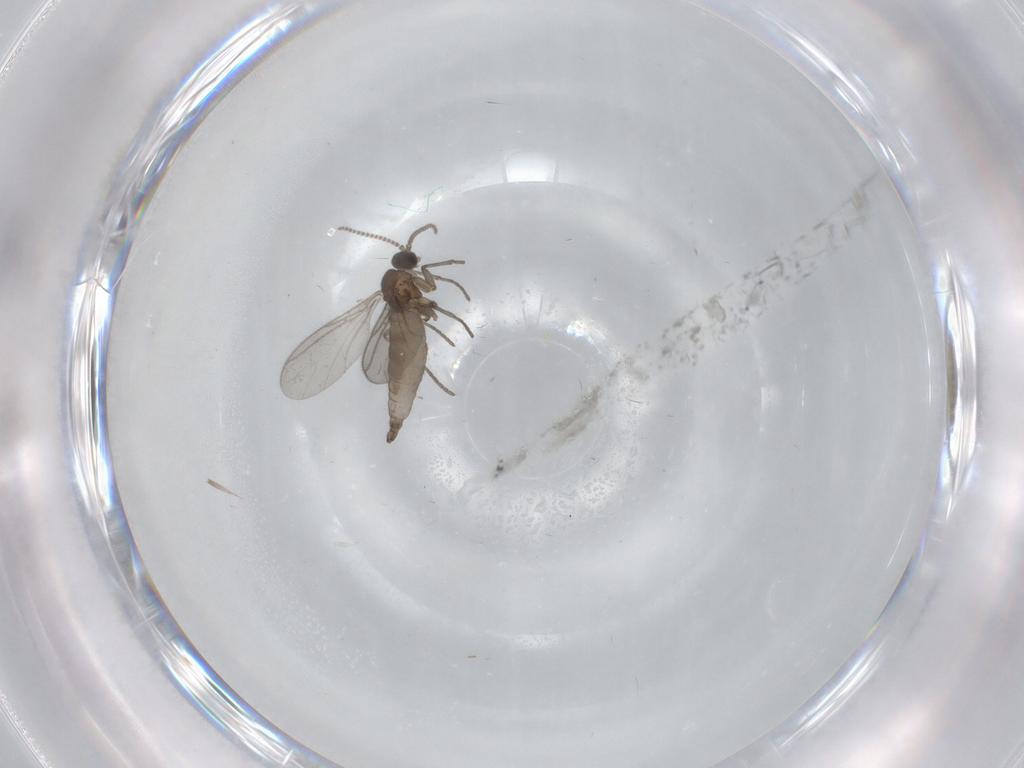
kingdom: Animalia
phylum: Arthropoda
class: Insecta
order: Diptera
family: Sciaridae
